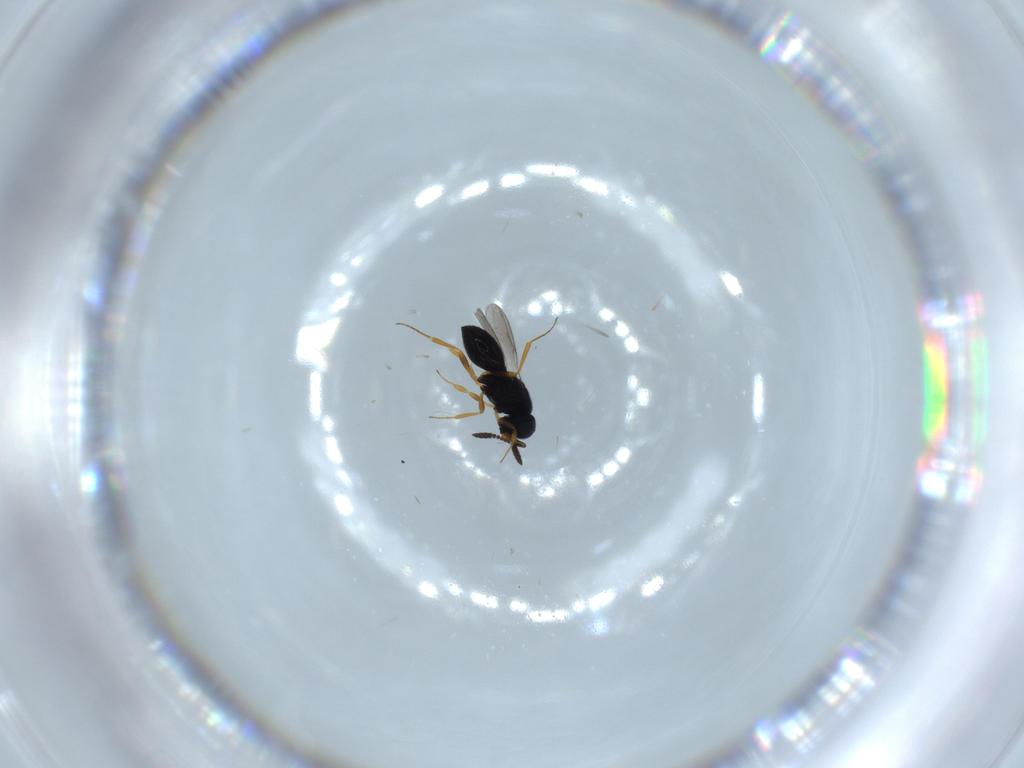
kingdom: Animalia
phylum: Arthropoda
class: Insecta
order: Hymenoptera
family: Scelionidae
